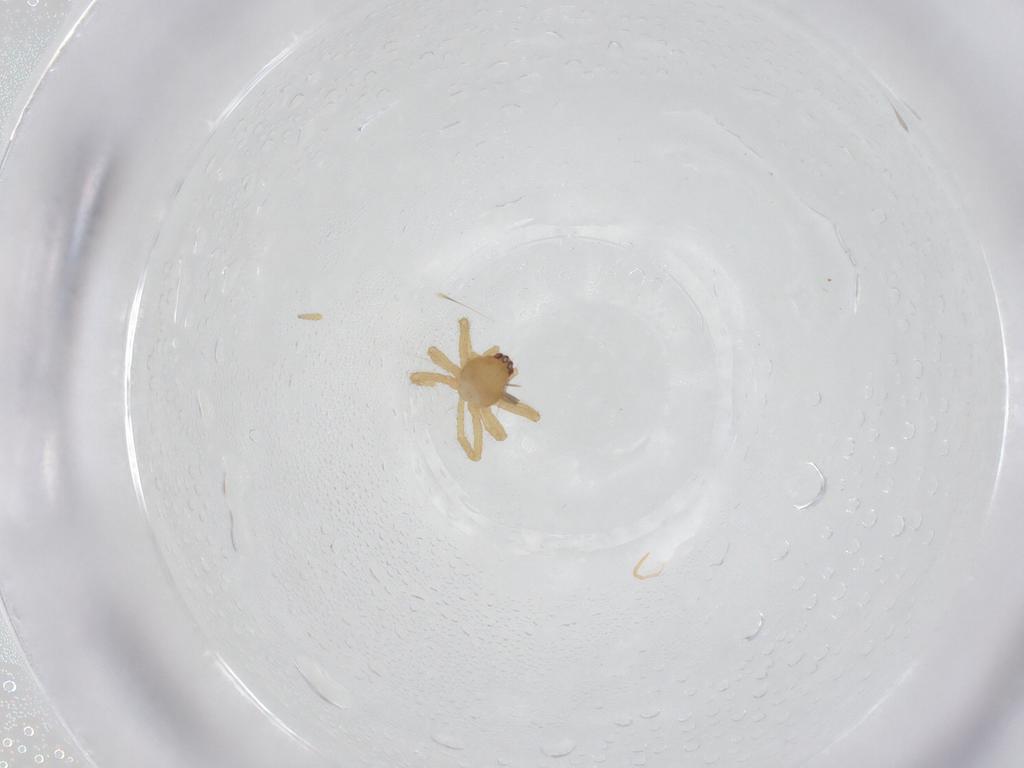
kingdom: Animalia
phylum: Arthropoda
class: Arachnida
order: Araneae
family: Theridiidae
